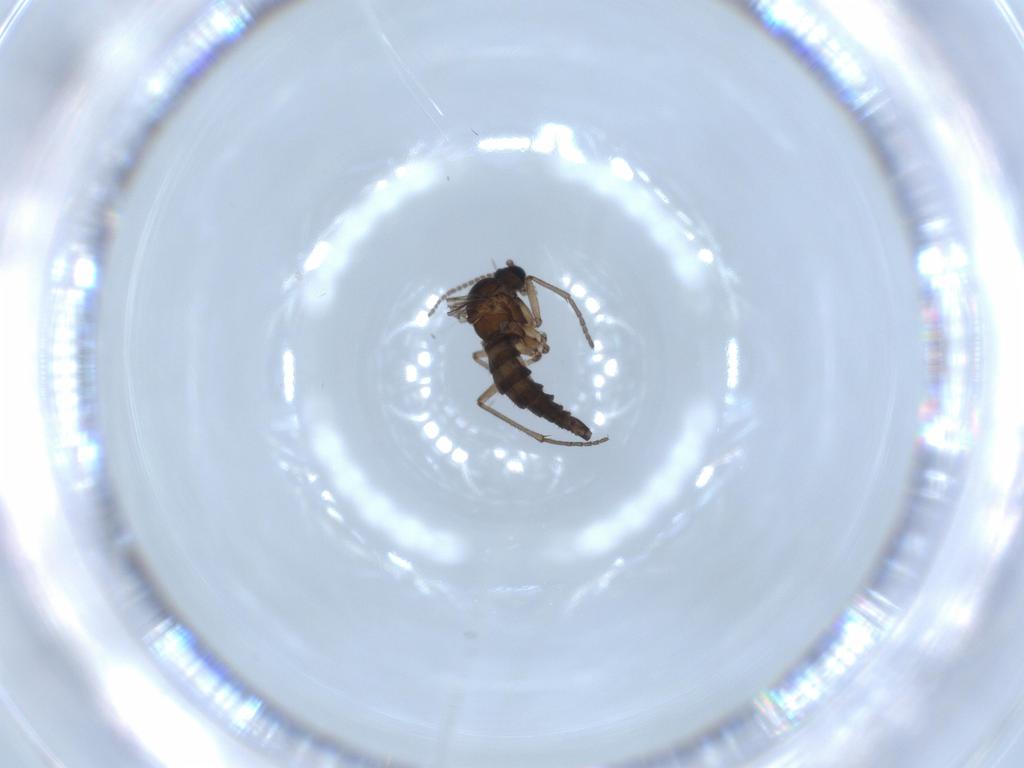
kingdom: Animalia
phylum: Arthropoda
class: Insecta
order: Diptera
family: Sciaridae
